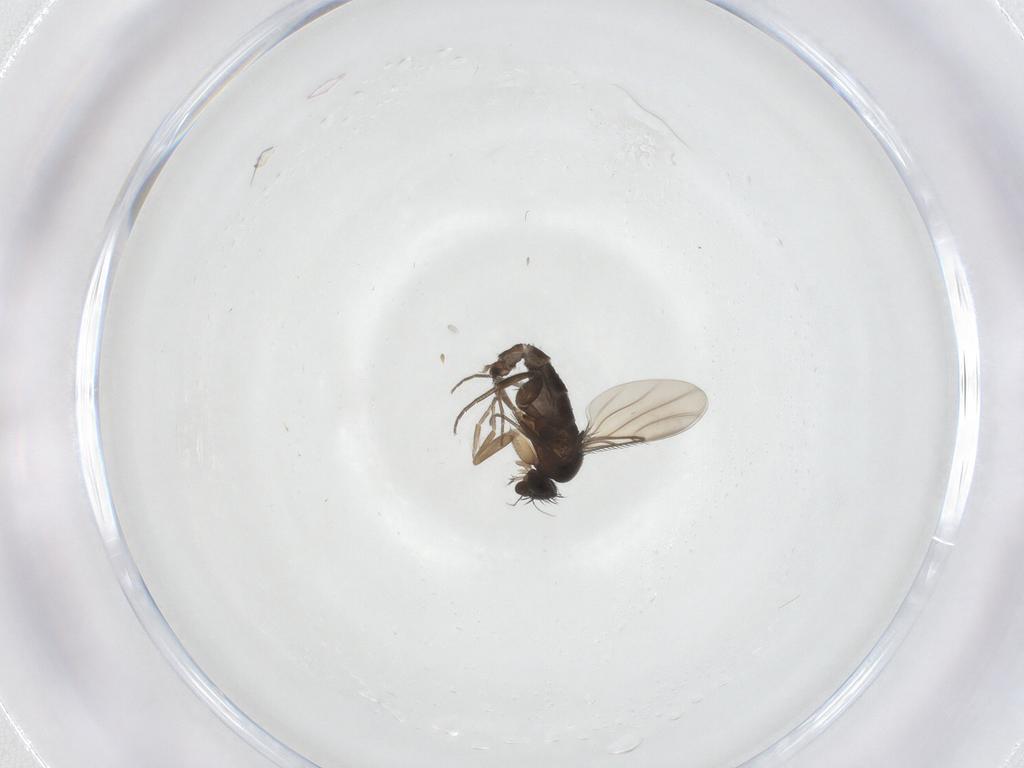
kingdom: Animalia
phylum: Arthropoda
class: Insecta
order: Diptera
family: Phoridae
